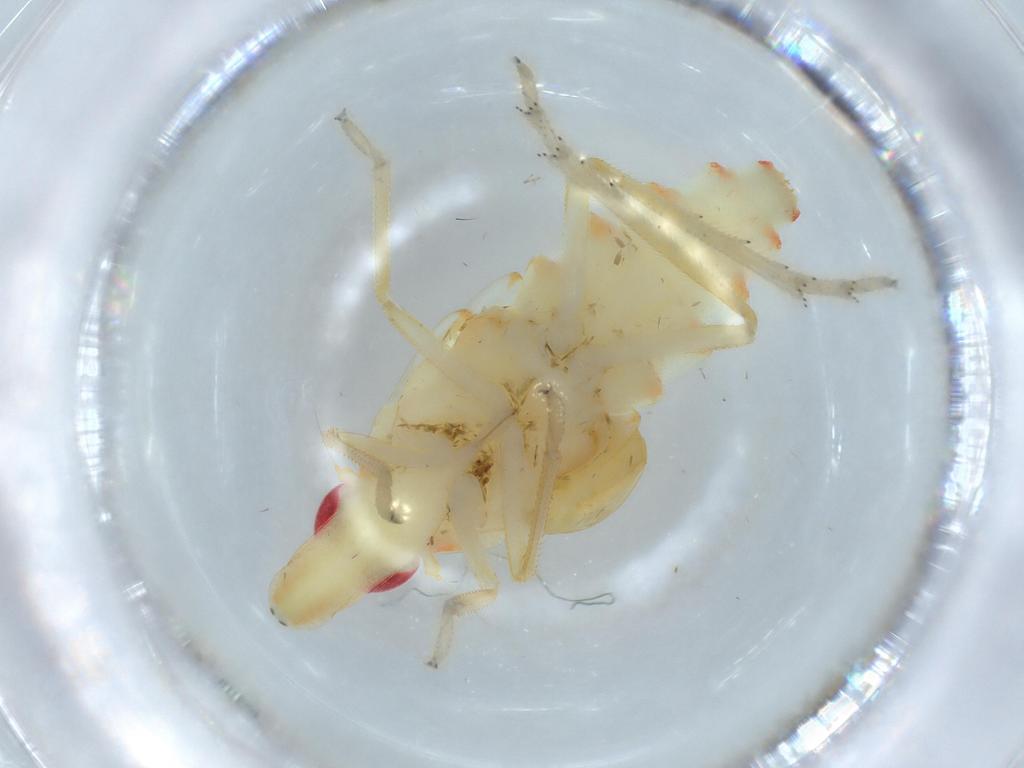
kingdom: Animalia
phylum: Arthropoda
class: Insecta
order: Hemiptera
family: Tropiduchidae
